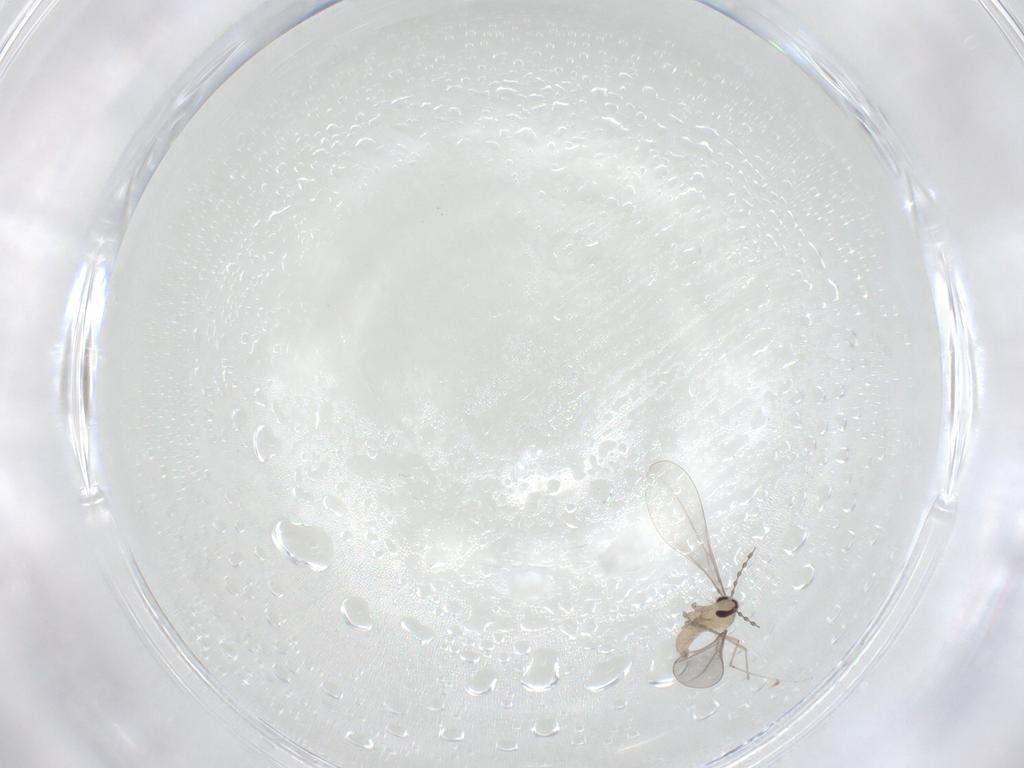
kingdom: Animalia
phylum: Arthropoda
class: Insecta
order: Diptera
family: Cecidomyiidae
